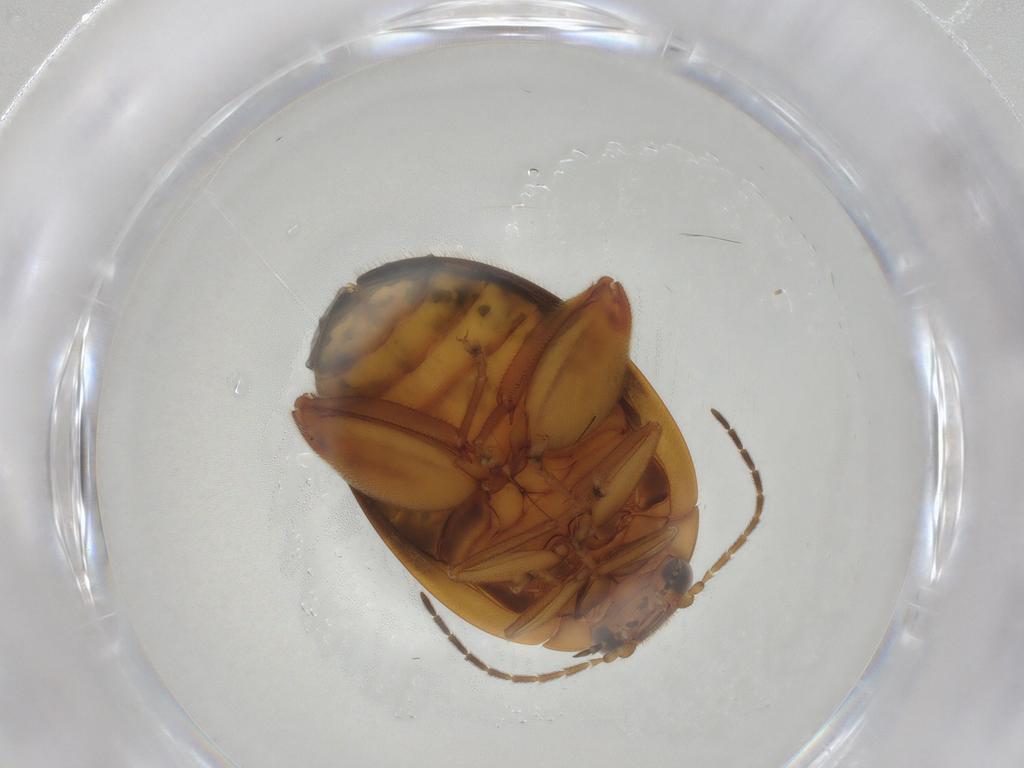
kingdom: Animalia
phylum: Arthropoda
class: Insecta
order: Coleoptera
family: Scirtidae
